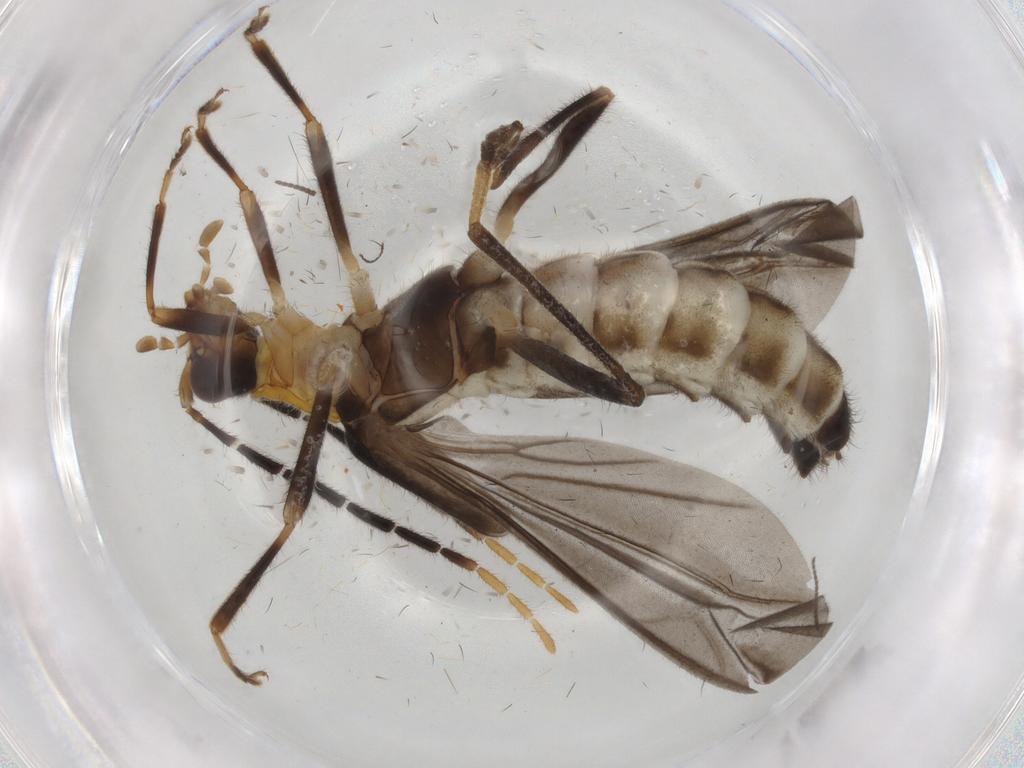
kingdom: Animalia
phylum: Arthropoda
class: Insecta
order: Coleoptera
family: Cantharidae
